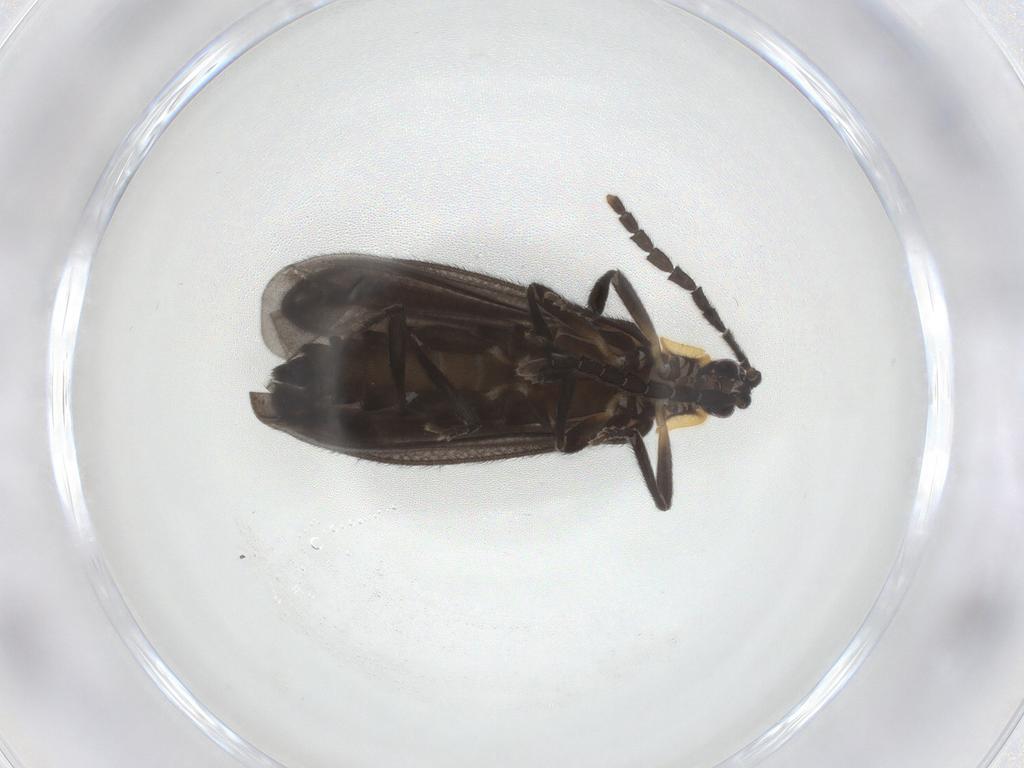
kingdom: Animalia
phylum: Arthropoda
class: Insecta
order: Coleoptera
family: Lycidae
